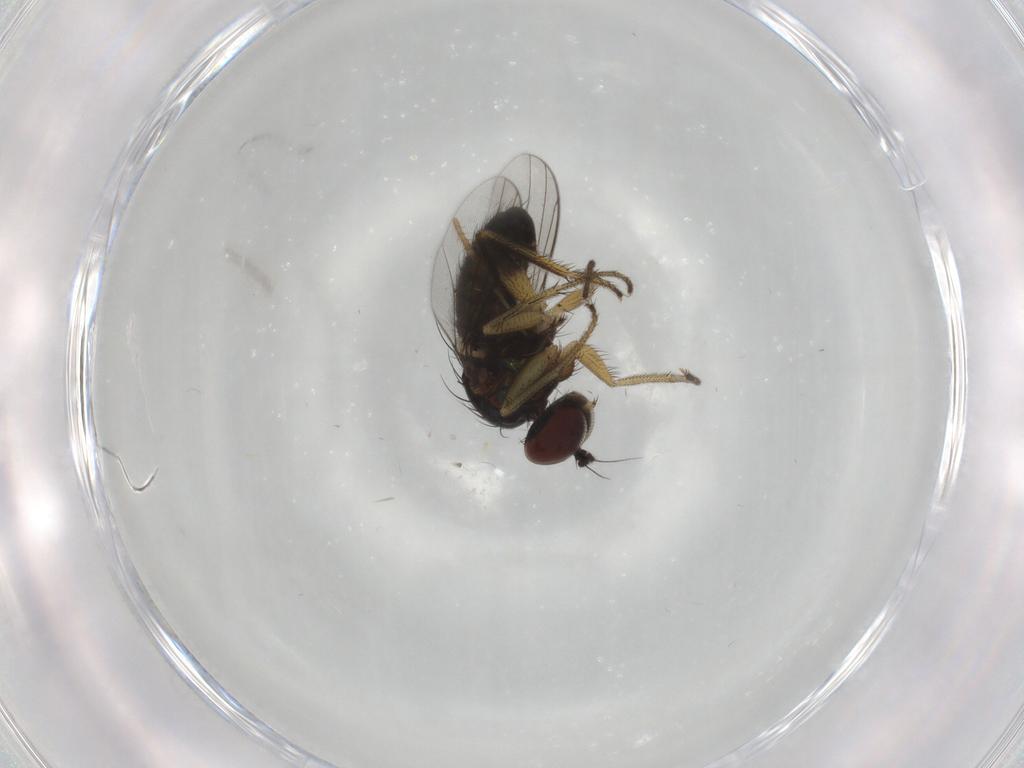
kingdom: Animalia
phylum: Arthropoda
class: Insecta
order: Diptera
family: Dolichopodidae
